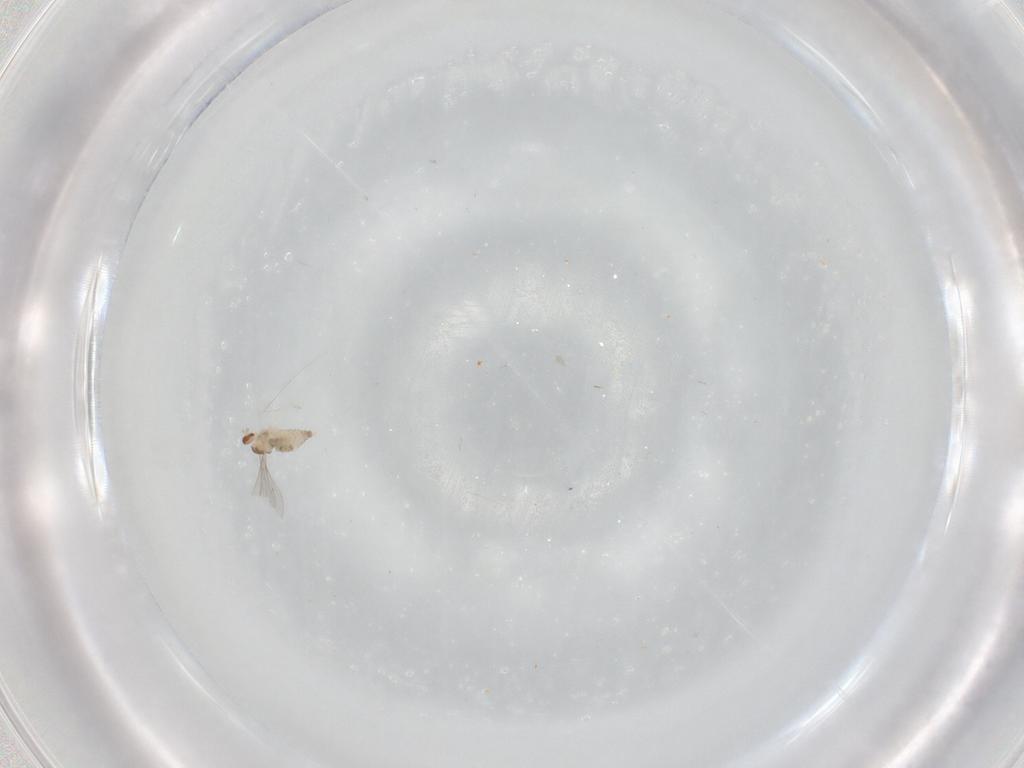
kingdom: Animalia
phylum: Arthropoda
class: Insecta
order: Diptera
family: Cecidomyiidae
